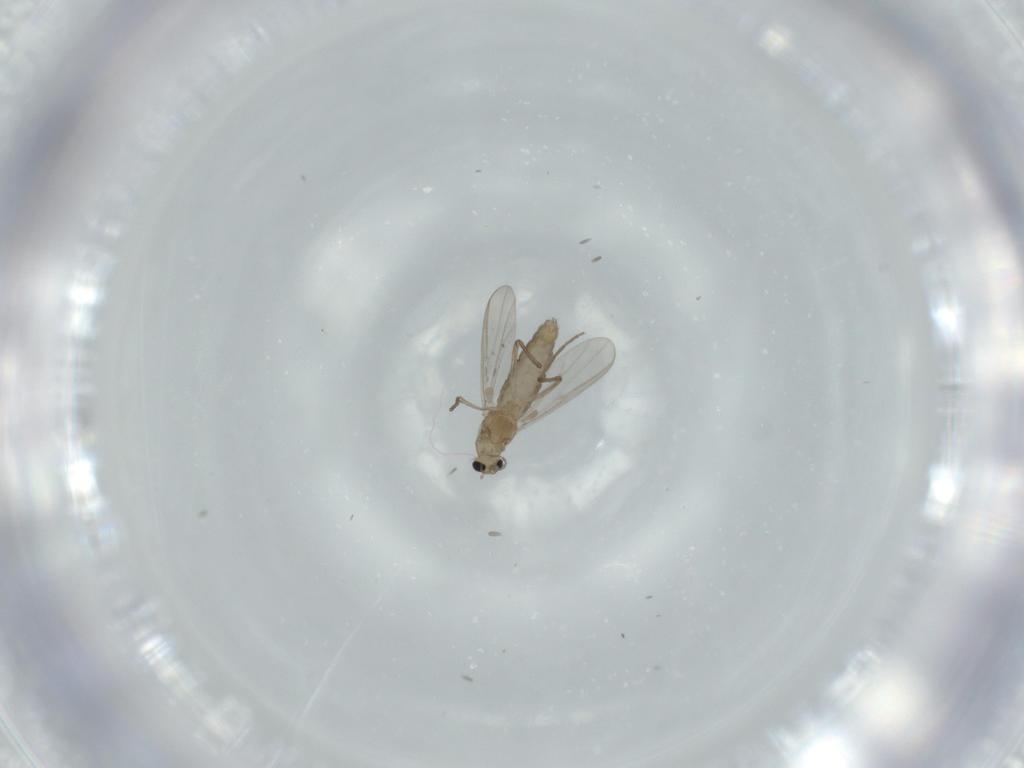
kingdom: Animalia
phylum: Arthropoda
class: Insecta
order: Diptera
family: Chironomidae
